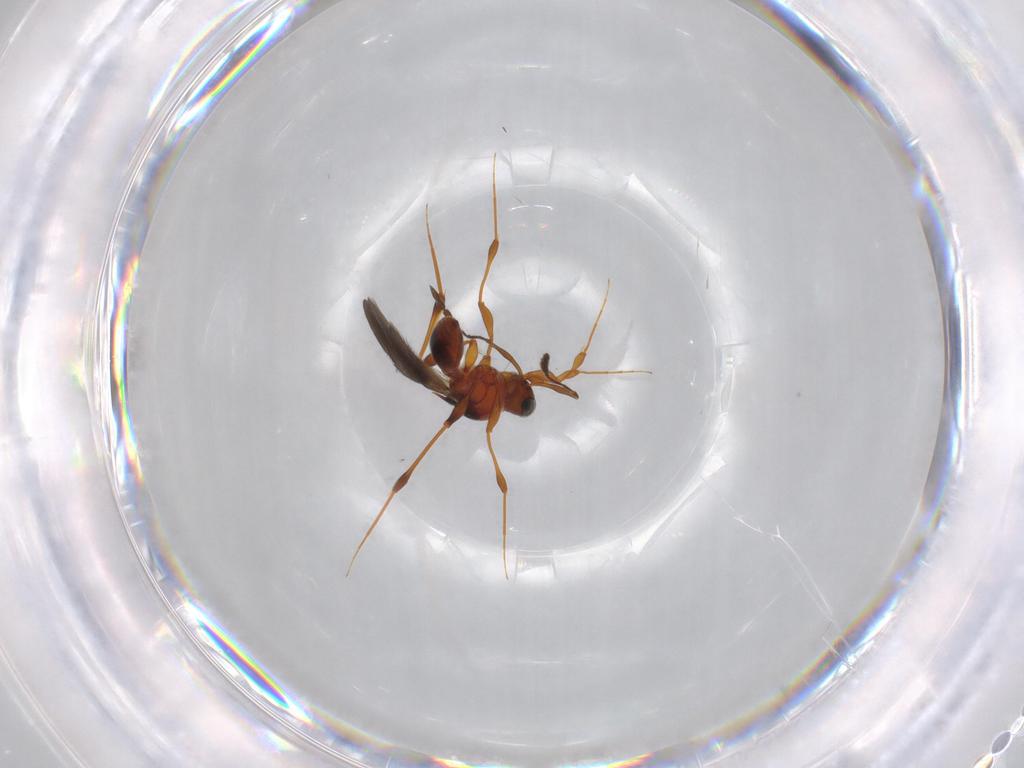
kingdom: Animalia
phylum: Arthropoda
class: Insecta
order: Hymenoptera
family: Platygastridae
